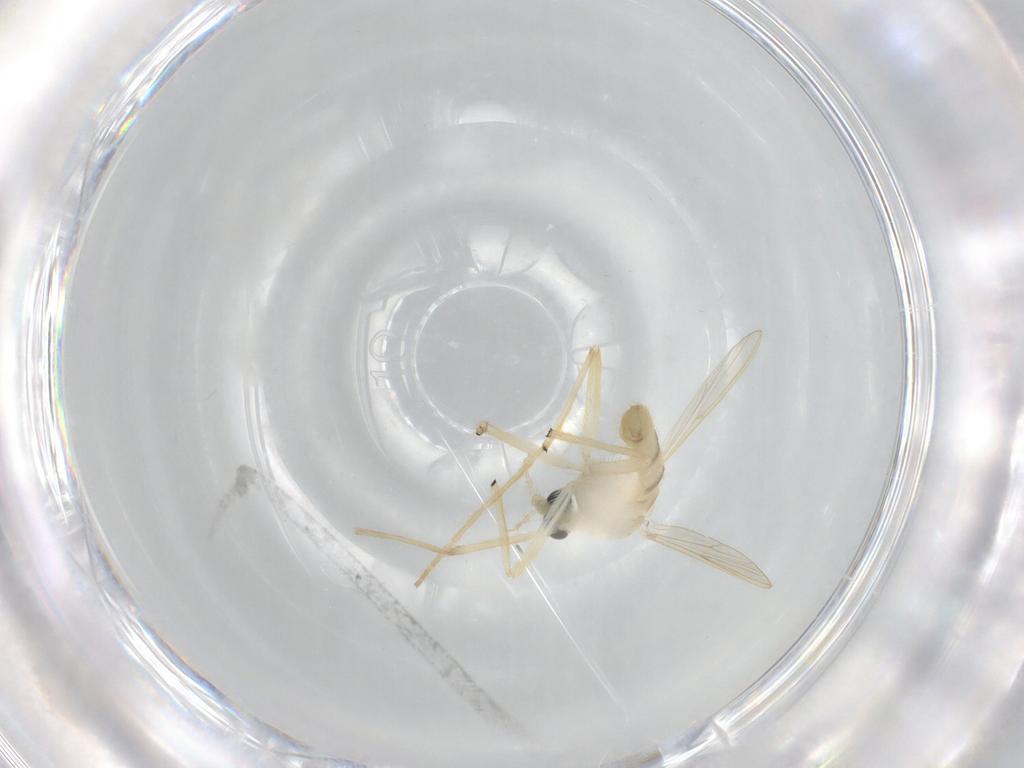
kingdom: Animalia
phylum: Arthropoda
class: Insecta
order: Diptera
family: Chironomidae
